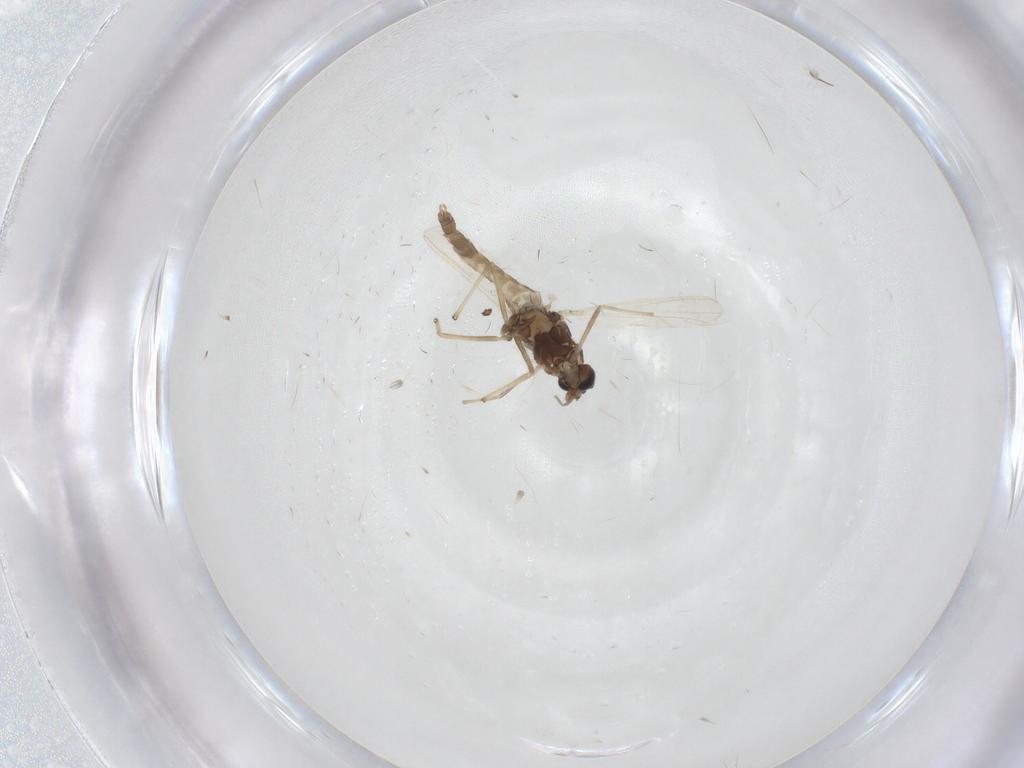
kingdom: Animalia
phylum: Arthropoda
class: Insecta
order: Diptera
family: Chironomidae
